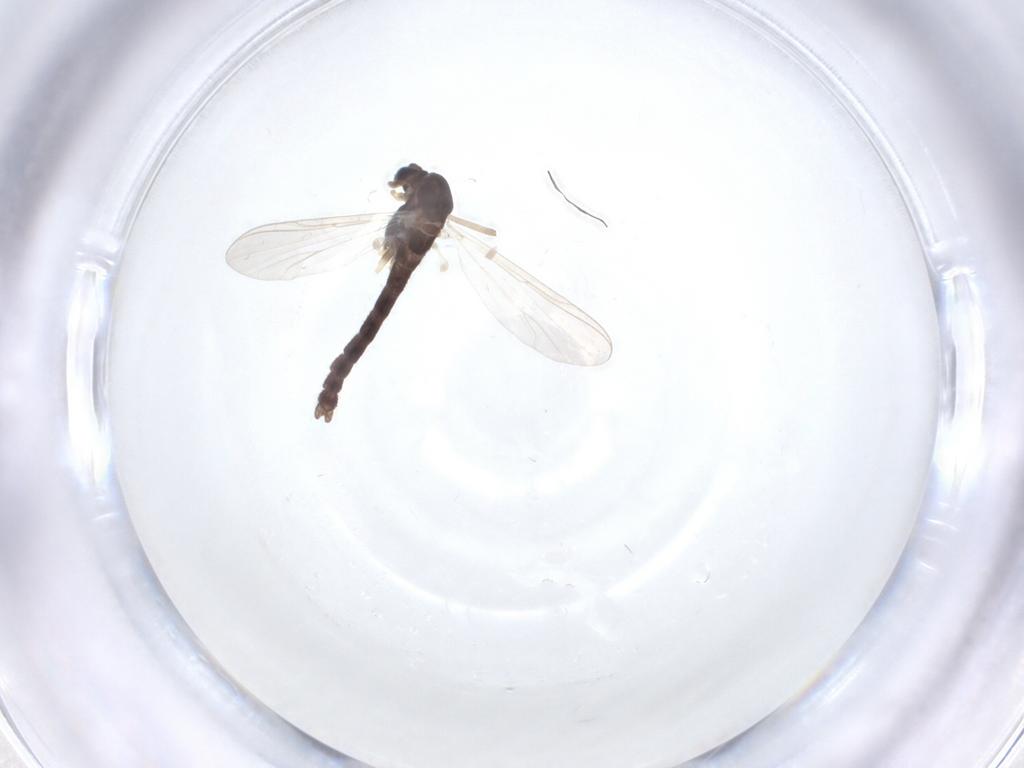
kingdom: Animalia
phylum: Arthropoda
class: Insecta
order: Diptera
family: Chironomidae
